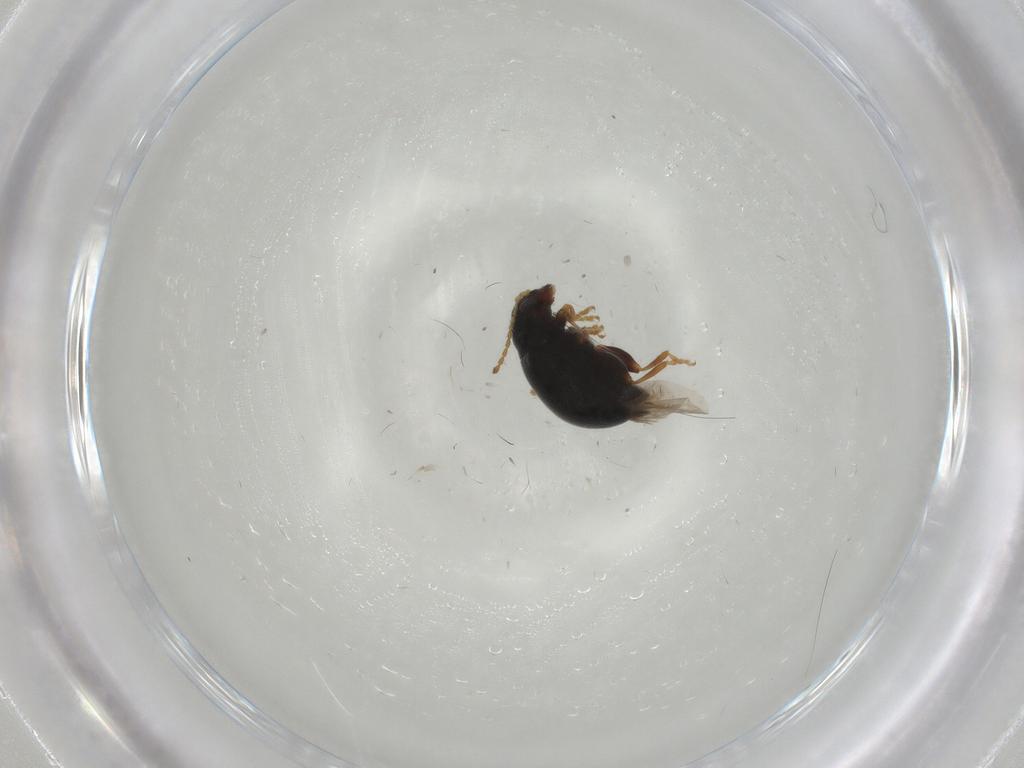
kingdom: Animalia
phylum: Arthropoda
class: Insecta
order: Coleoptera
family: Chrysomelidae
